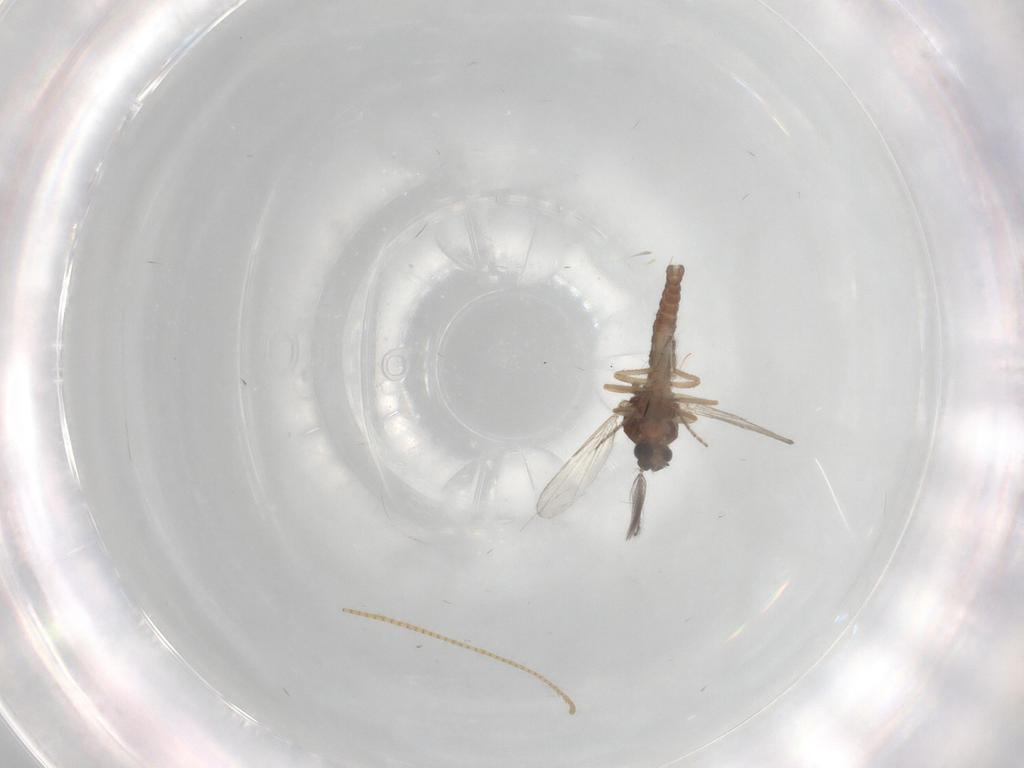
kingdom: Animalia
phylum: Arthropoda
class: Insecta
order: Diptera
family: Ceratopogonidae
